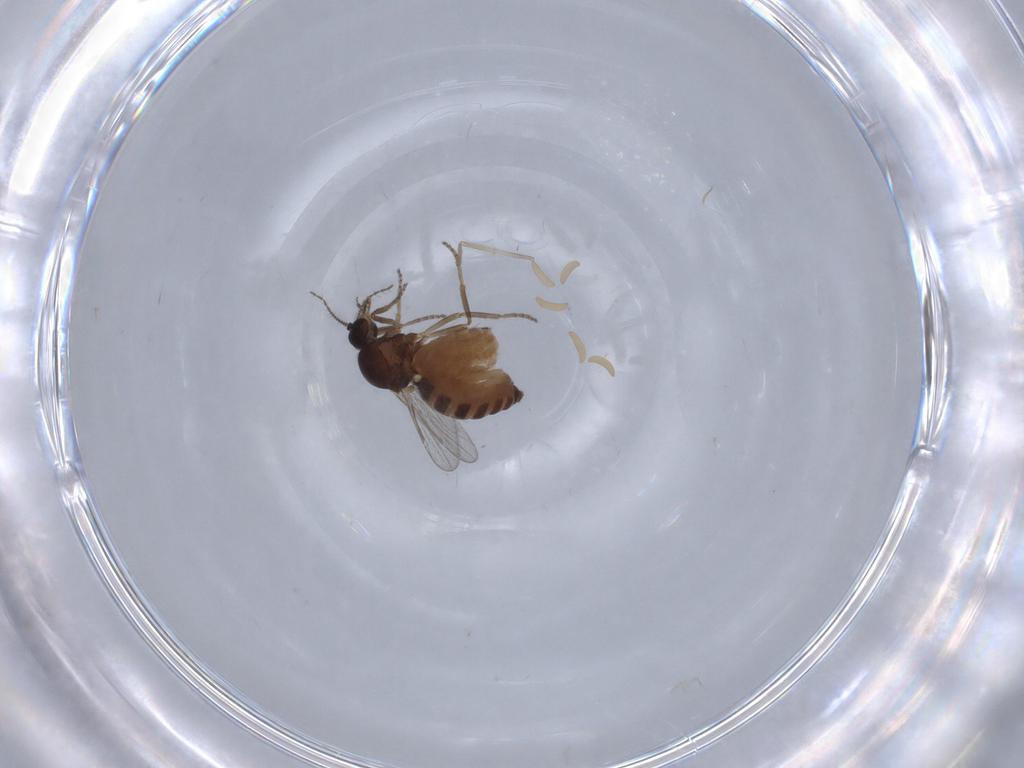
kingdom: Animalia
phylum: Arthropoda
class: Insecta
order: Diptera
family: Ceratopogonidae
